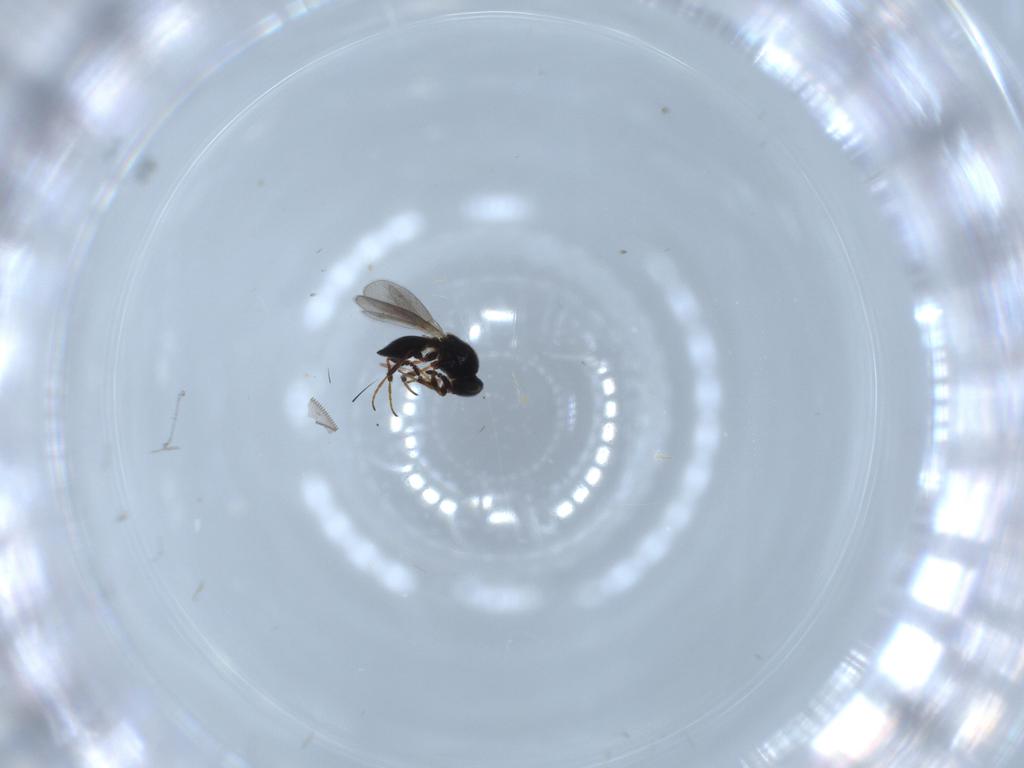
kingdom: Animalia
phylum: Arthropoda
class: Insecta
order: Hymenoptera
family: Platygastridae
